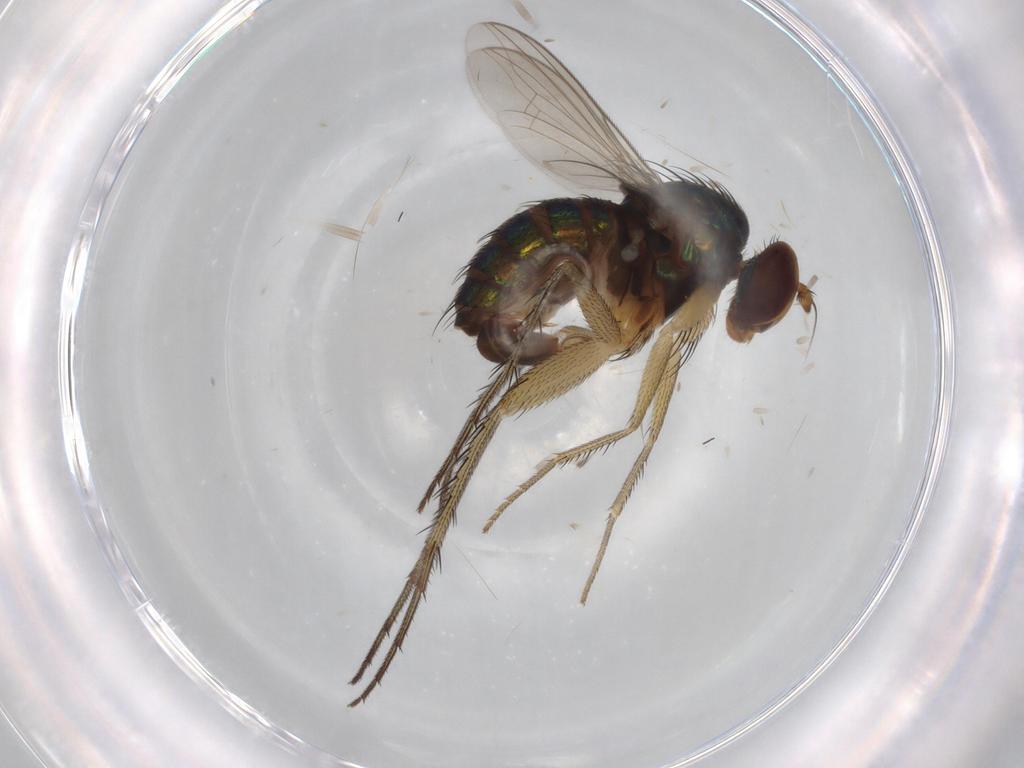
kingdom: Animalia
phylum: Arthropoda
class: Insecta
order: Diptera
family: Dolichopodidae
